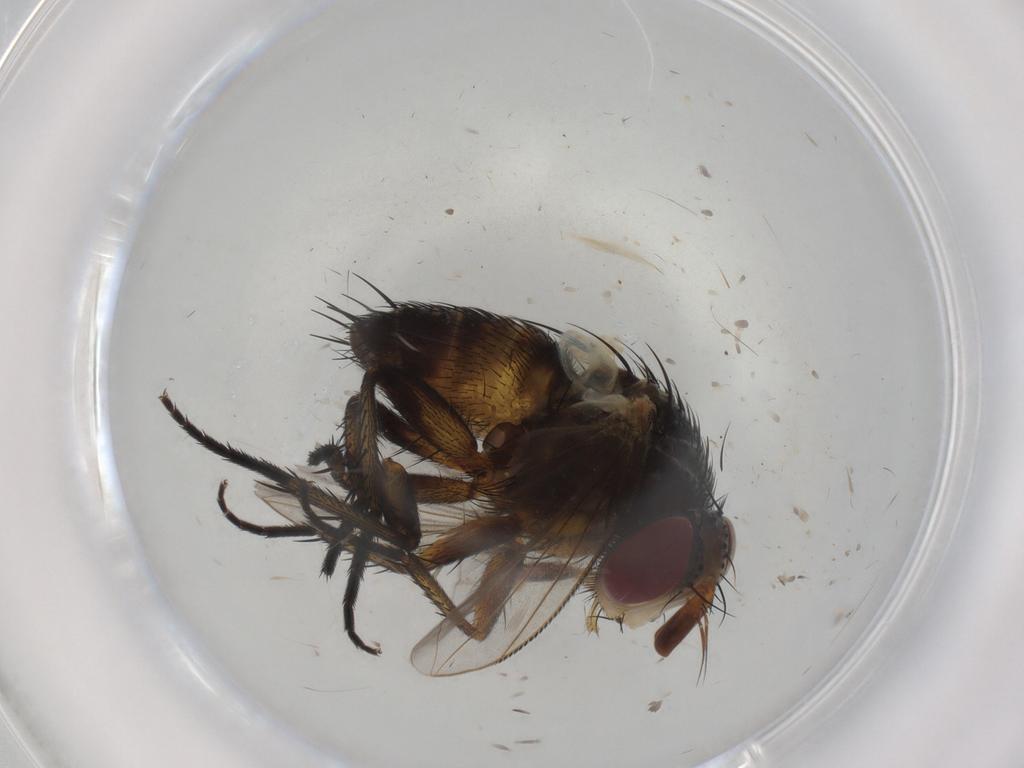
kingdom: Animalia
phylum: Arthropoda
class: Insecta
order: Diptera
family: Tachinidae
